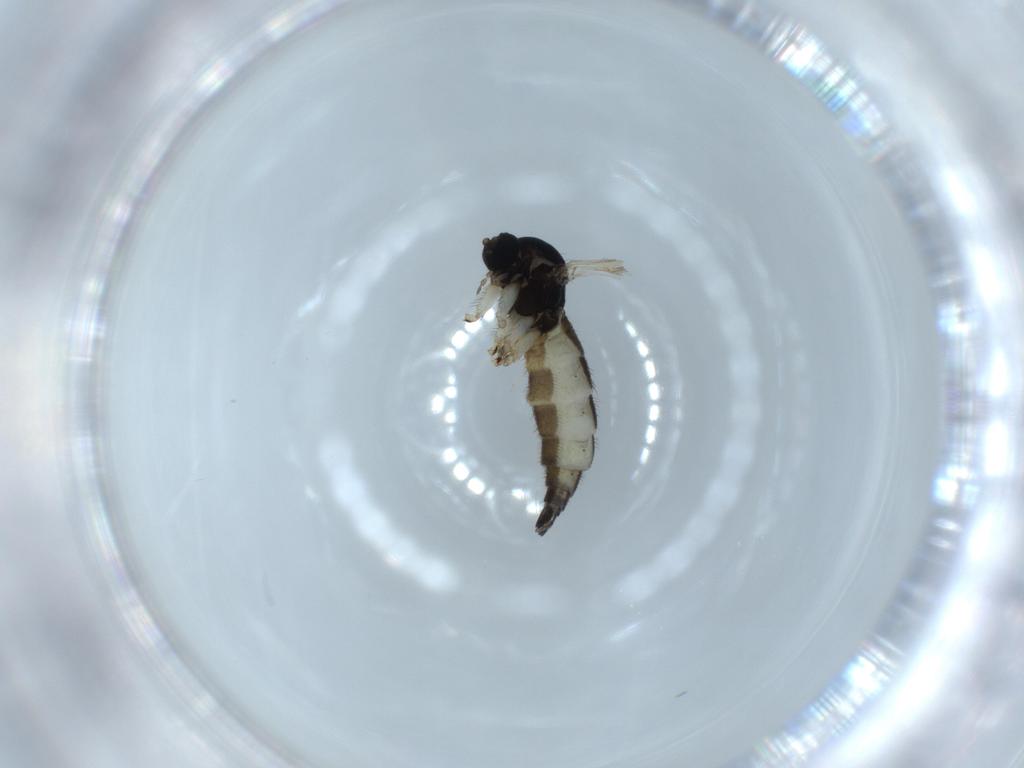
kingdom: Animalia
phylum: Arthropoda
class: Insecta
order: Diptera
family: Sciaridae
